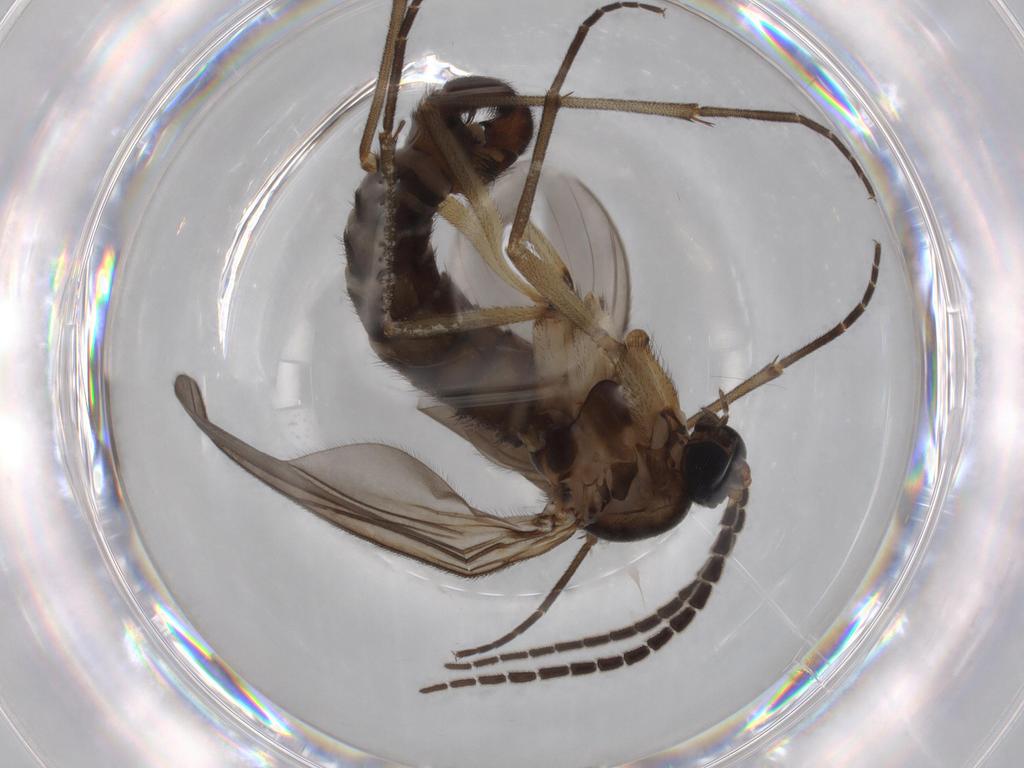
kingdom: Animalia
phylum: Arthropoda
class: Insecta
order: Diptera
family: Sciaridae
